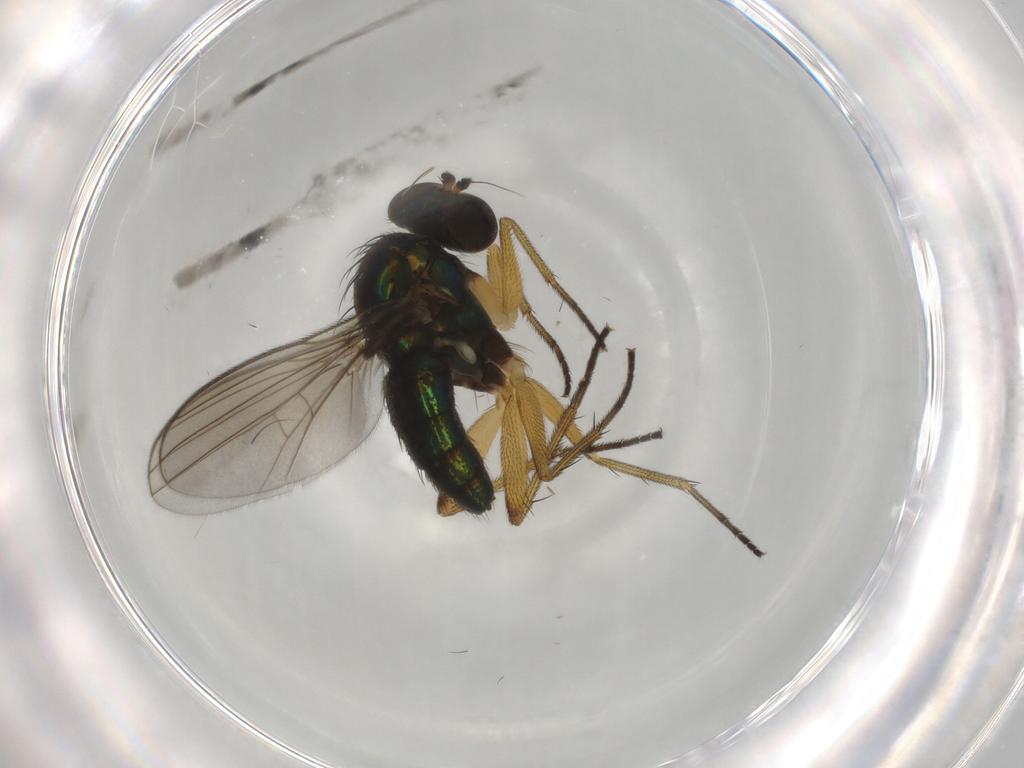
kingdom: Animalia
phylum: Arthropoda
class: Insecta
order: Diptera
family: Dolichopodidae
